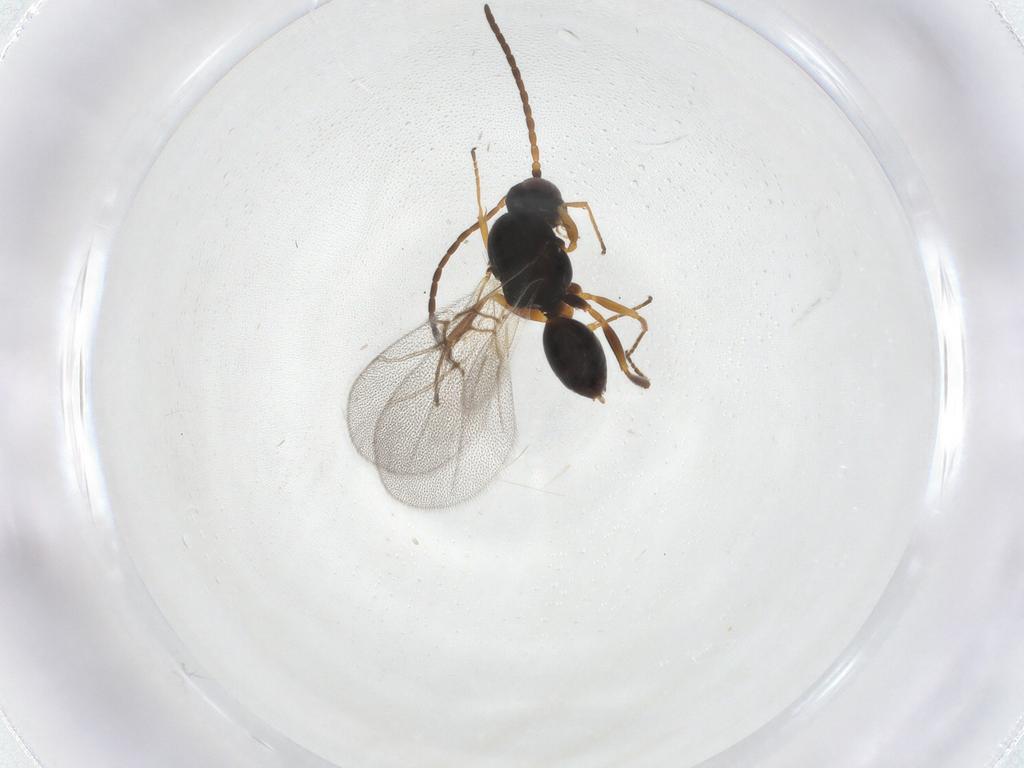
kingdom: Animalia
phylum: Arthropoda
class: Insecta
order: Hymenoptera
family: Cynipidae
